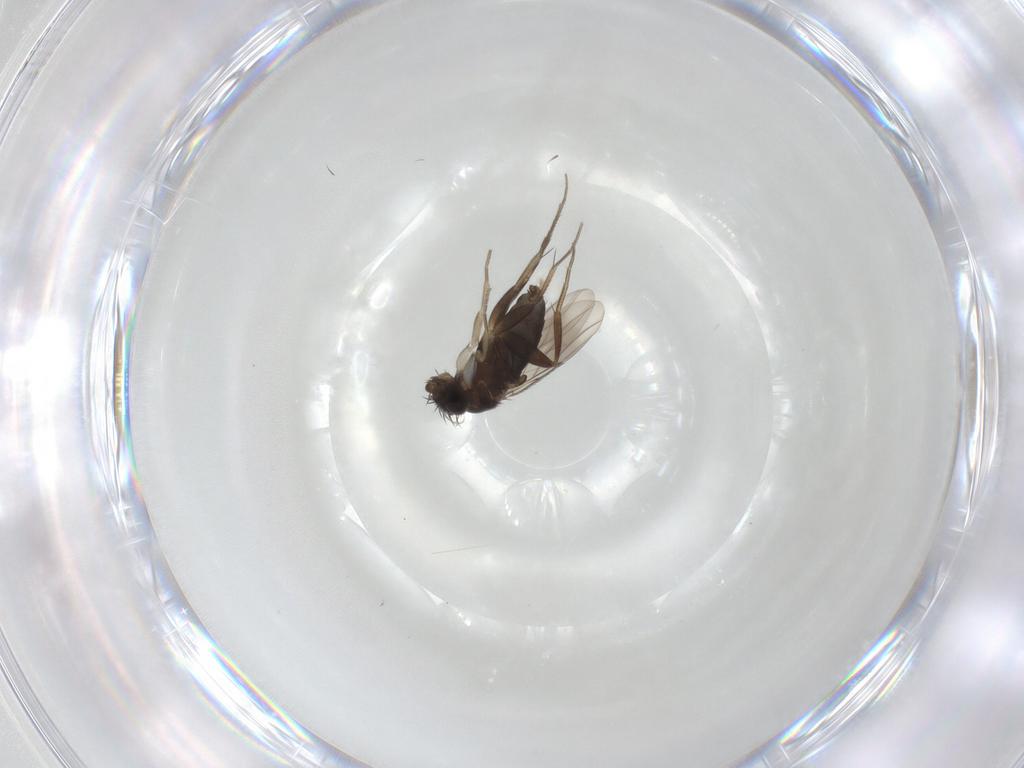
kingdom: Animalia
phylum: Arthropoda
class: Insecta
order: Diptera
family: Phoridae
